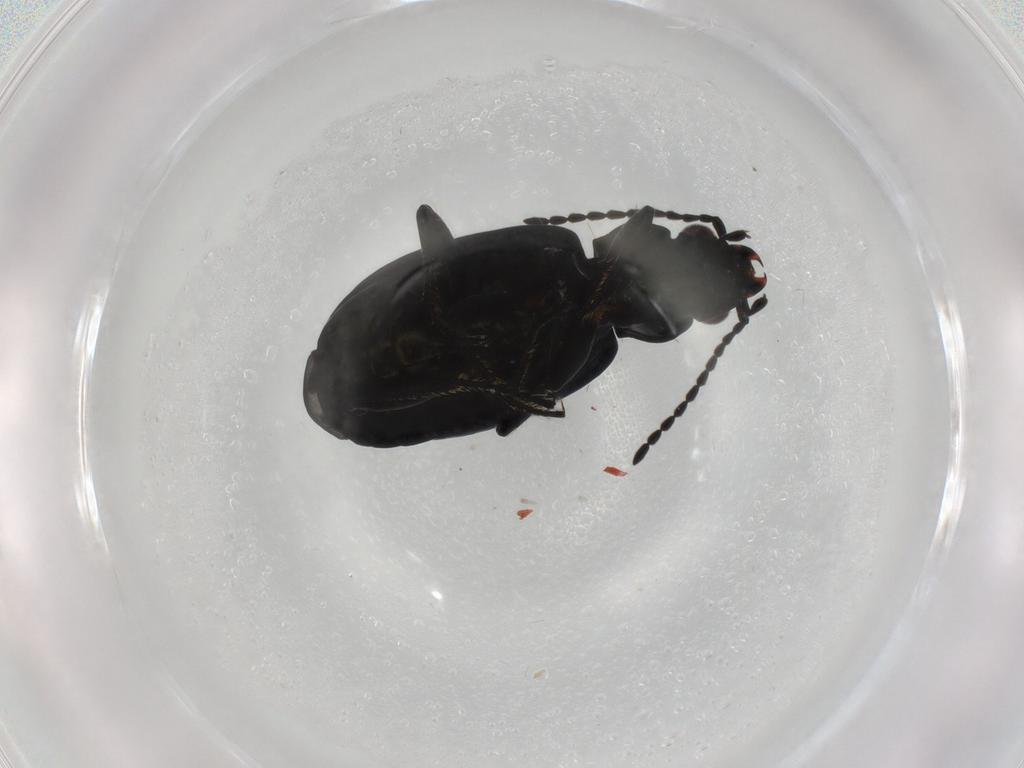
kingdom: Animalia
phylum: Arthropoda
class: Insecta
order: Coleoptera
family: Carabidae
